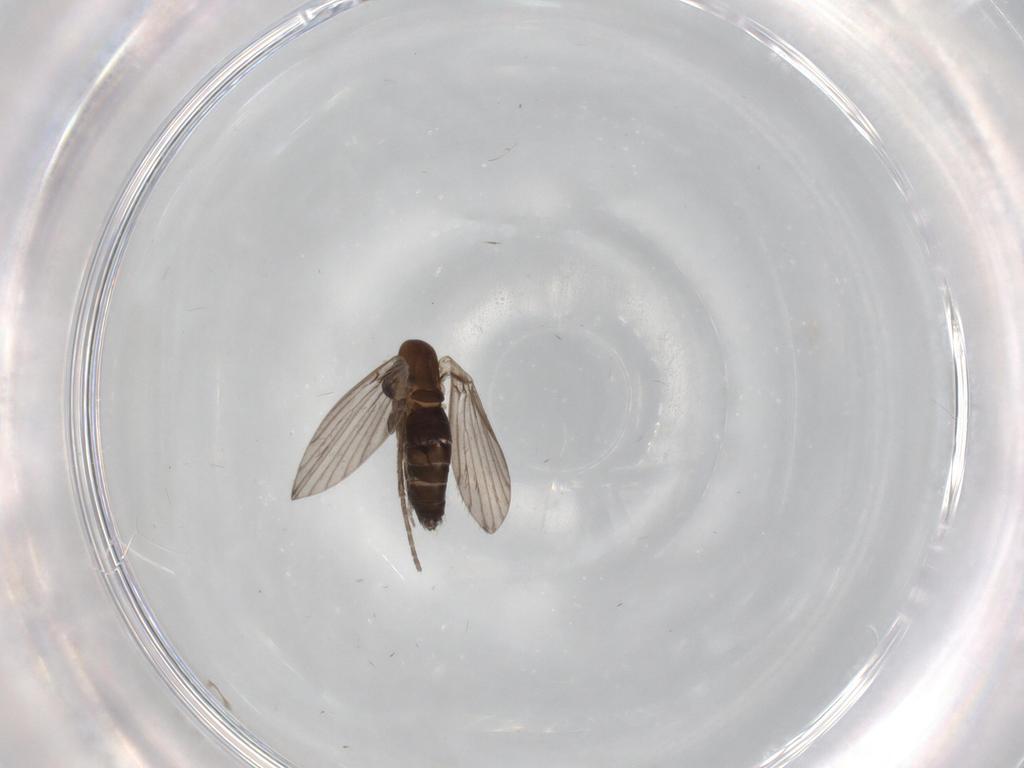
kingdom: Animalia
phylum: Arthropoda
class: Insecta
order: Diptera
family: Psychodidae
